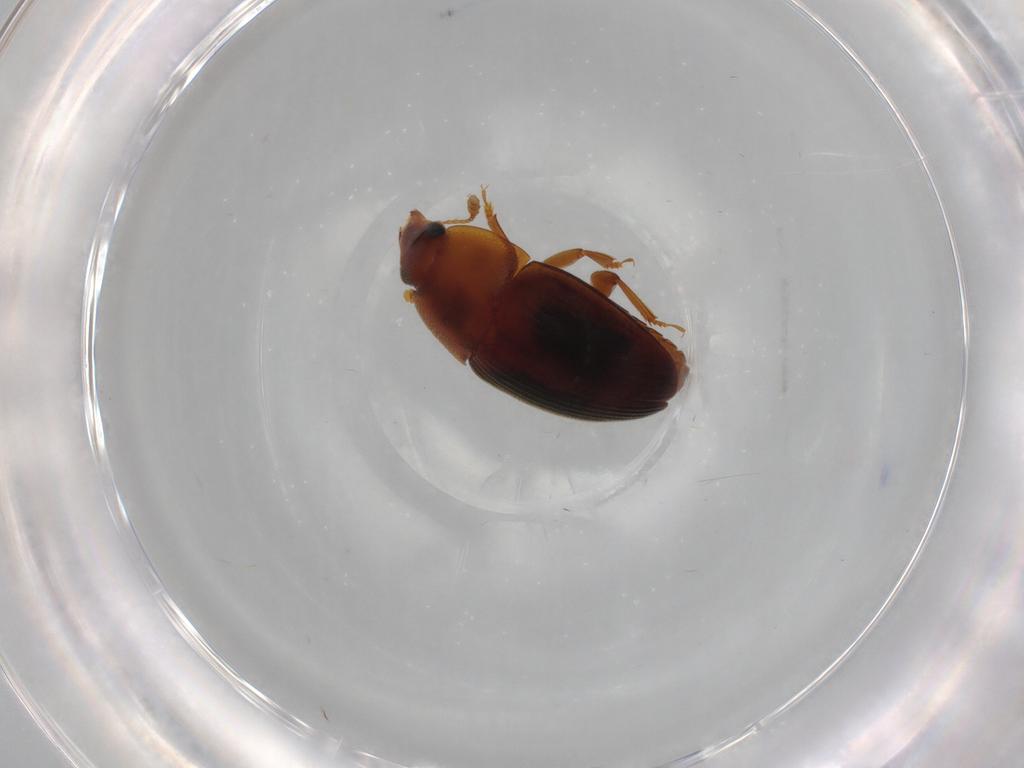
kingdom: Animalia
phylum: Arthropoda
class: Insecta
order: Coleoptera
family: Nitidulidae
